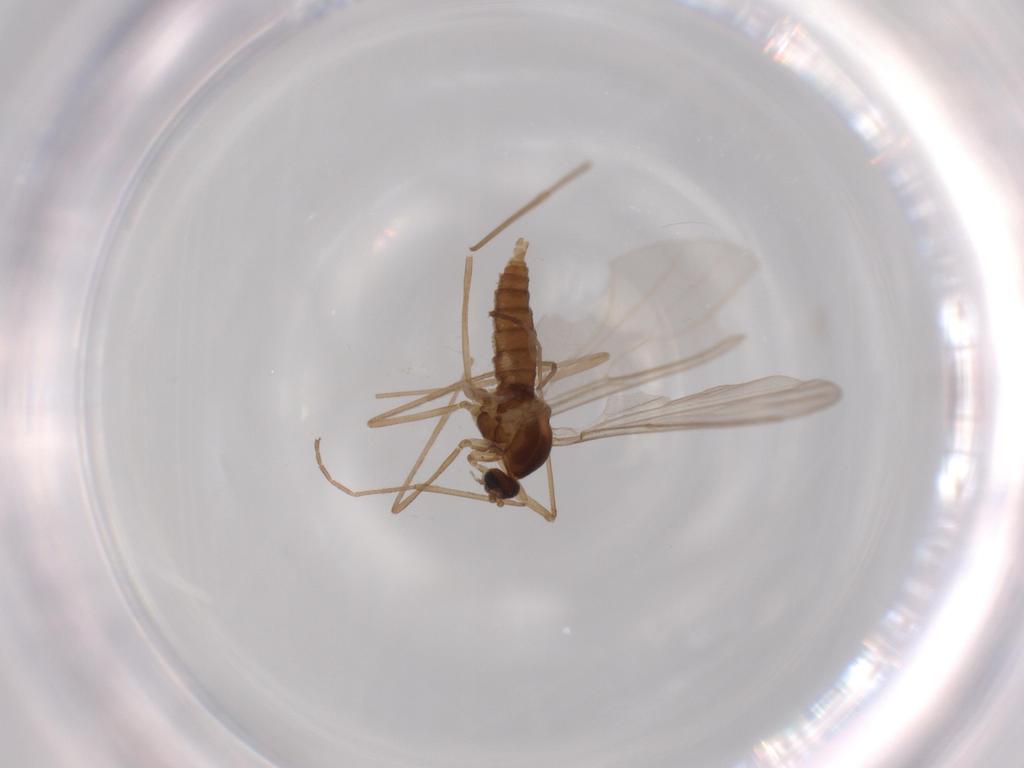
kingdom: Animalia
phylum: Arthropoda
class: Insecta
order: Diptera
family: Cecidomyiidae
